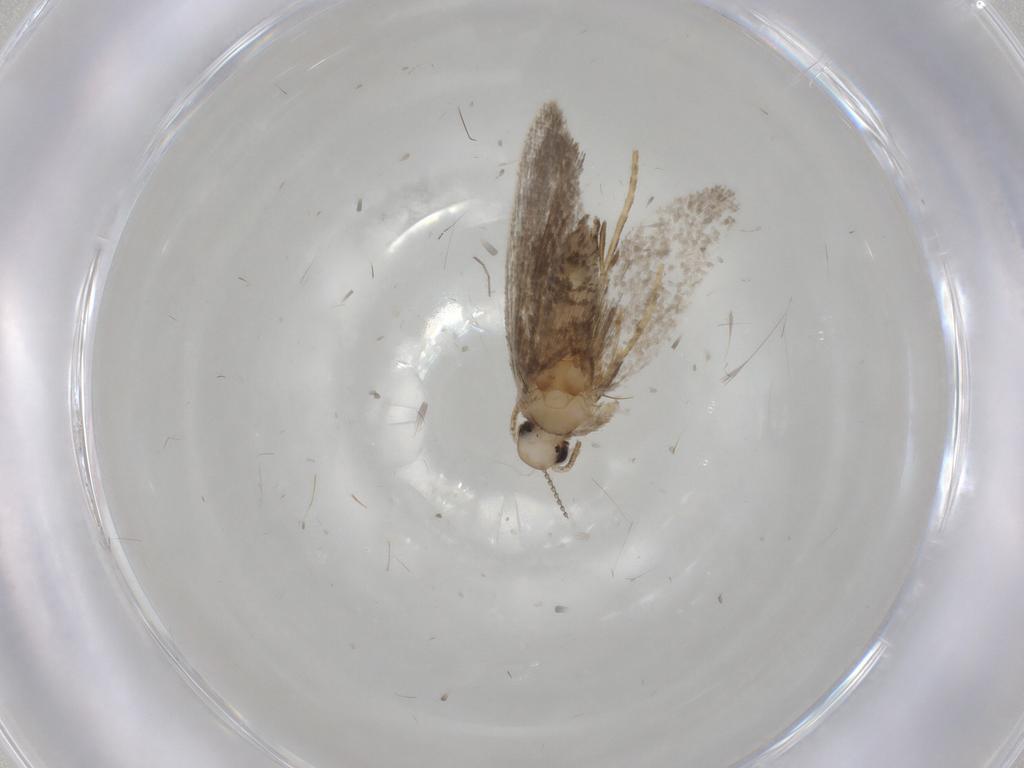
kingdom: Animalia
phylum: Arthropoda
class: Insecta
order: Lepidoptera
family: Psychidae
